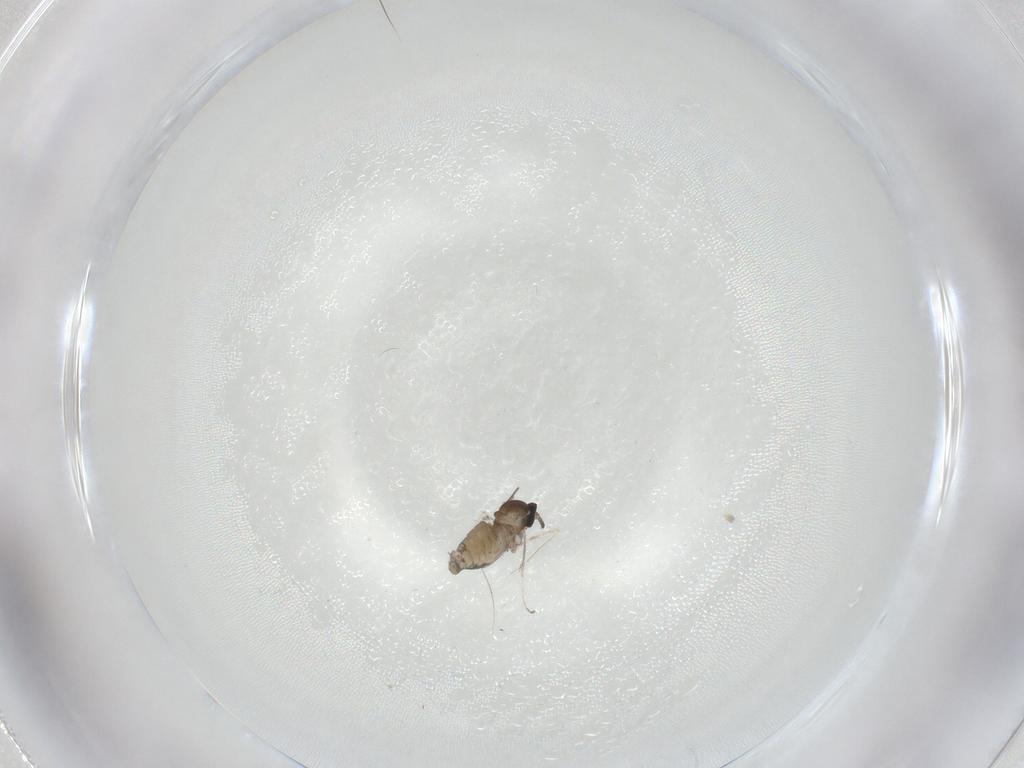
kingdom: Animalia
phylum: Arthropoda
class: Insecta
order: Diptera
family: Cecidomyiidae
